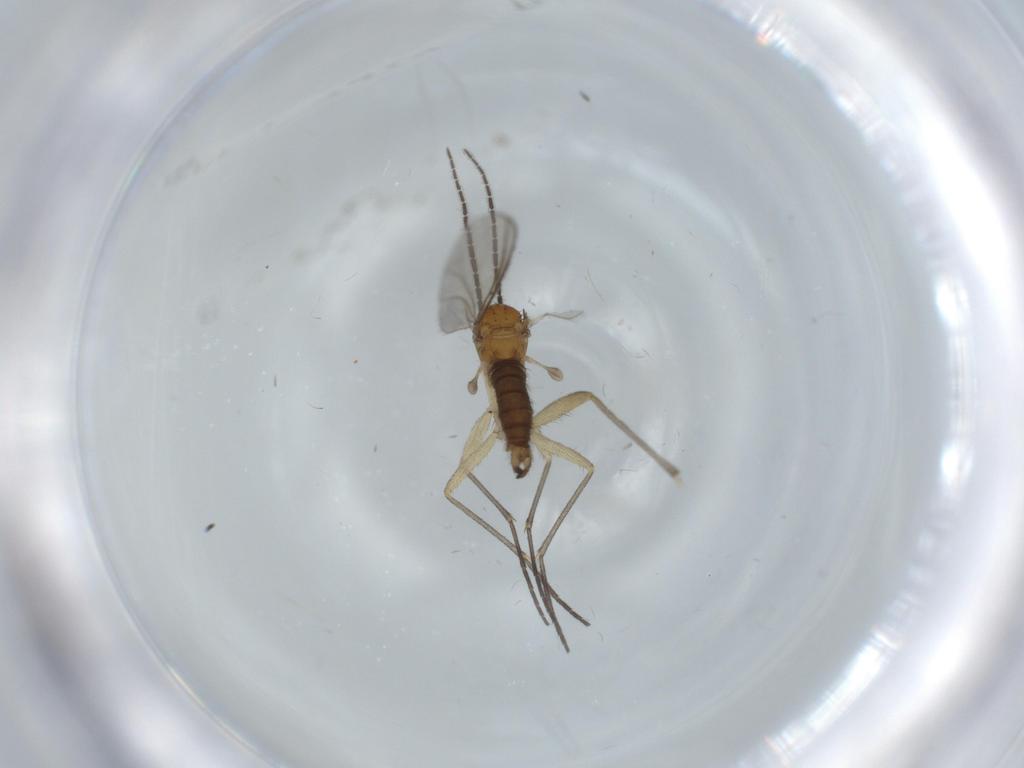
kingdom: Animalia
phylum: Arthropoda
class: Insecta
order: Diptera
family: Sciaridae
